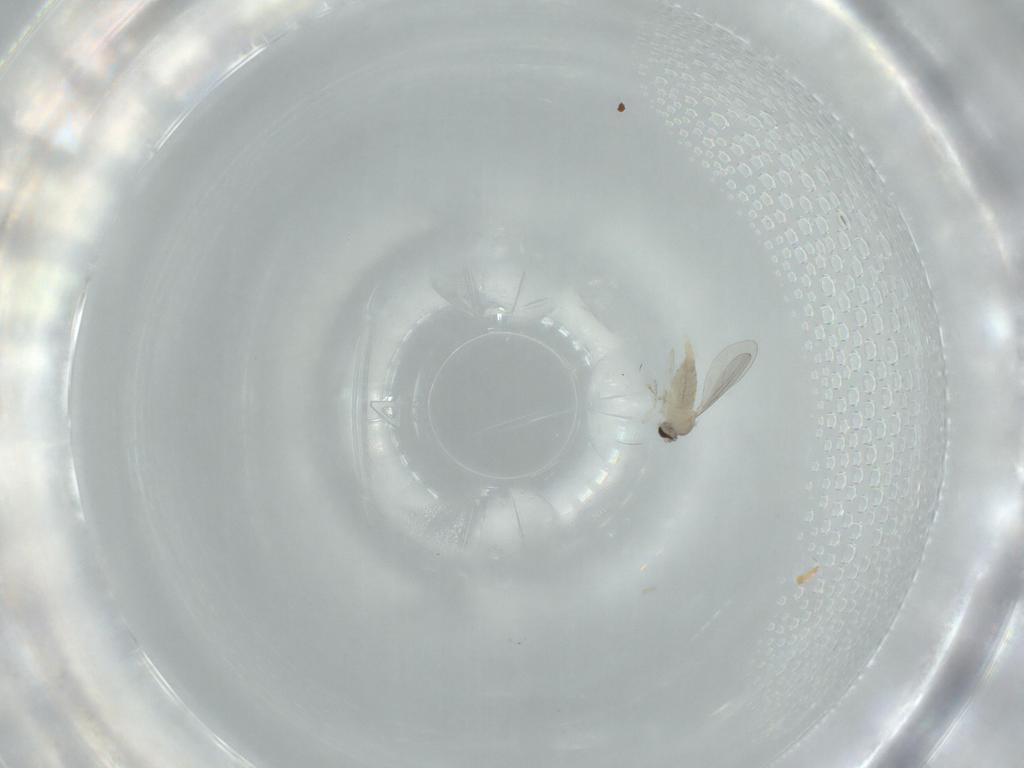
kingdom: Animalia
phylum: Arthropoda
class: Insecta
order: Diptera
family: Cecidomyiidae
